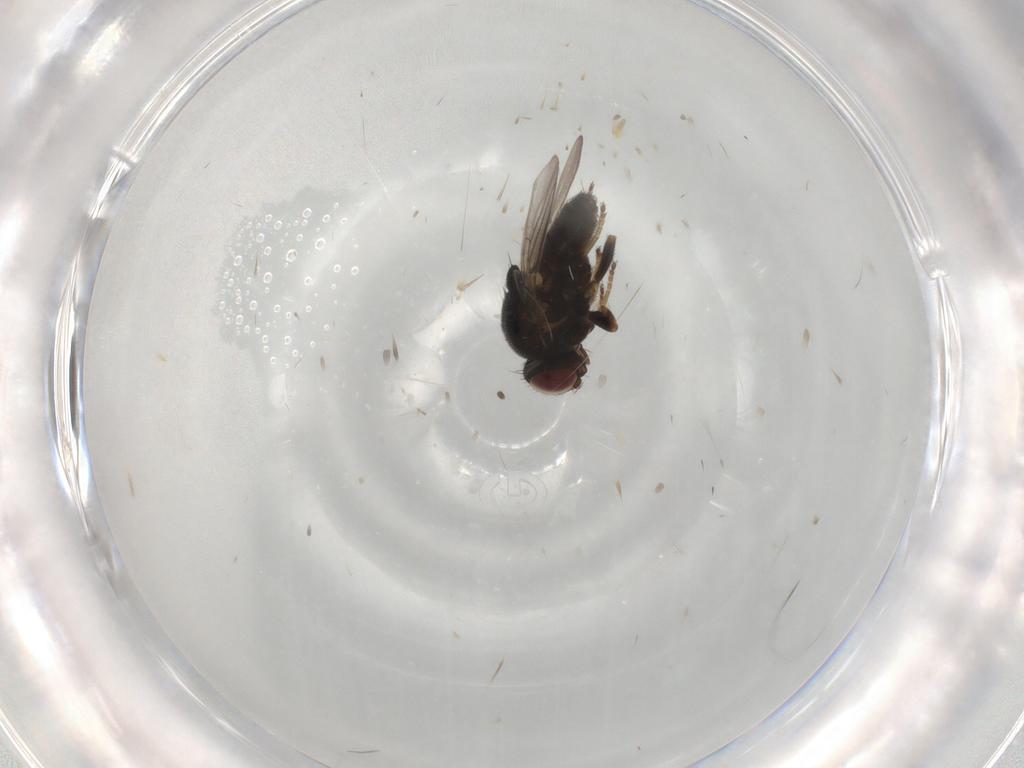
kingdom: Animalia
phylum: Arthropoda
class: Insecta
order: Diptera
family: Chloropidae
